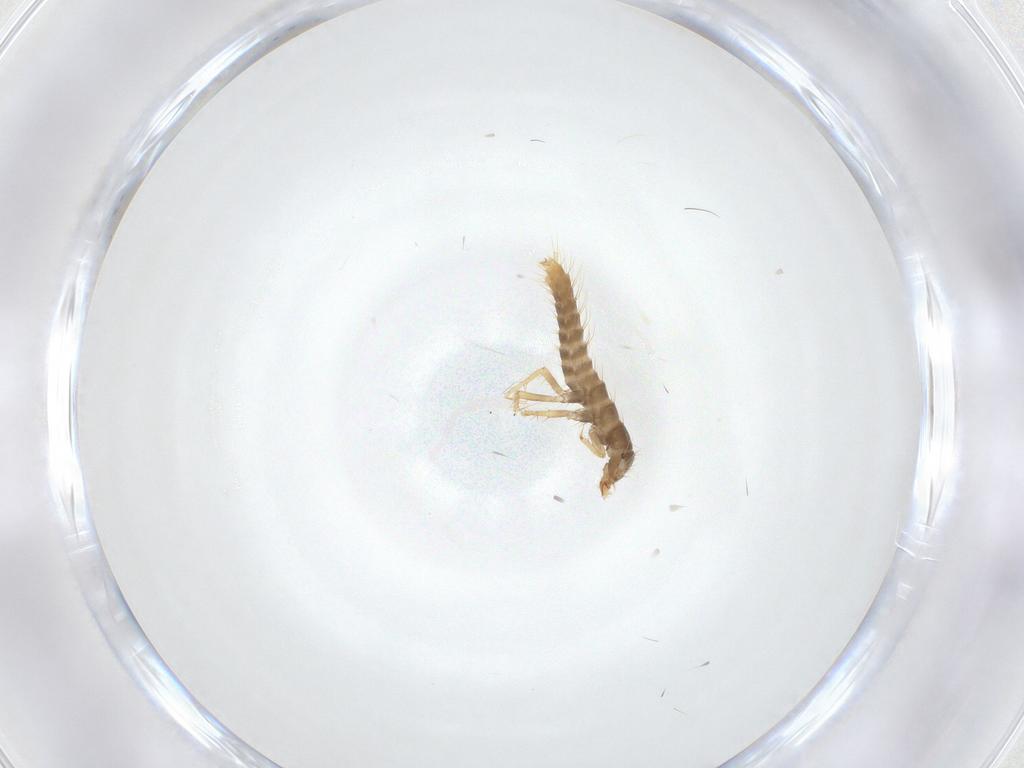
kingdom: Animalia
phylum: Arthropoda
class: Insecta
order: Coleoptera
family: Staphylinidae
